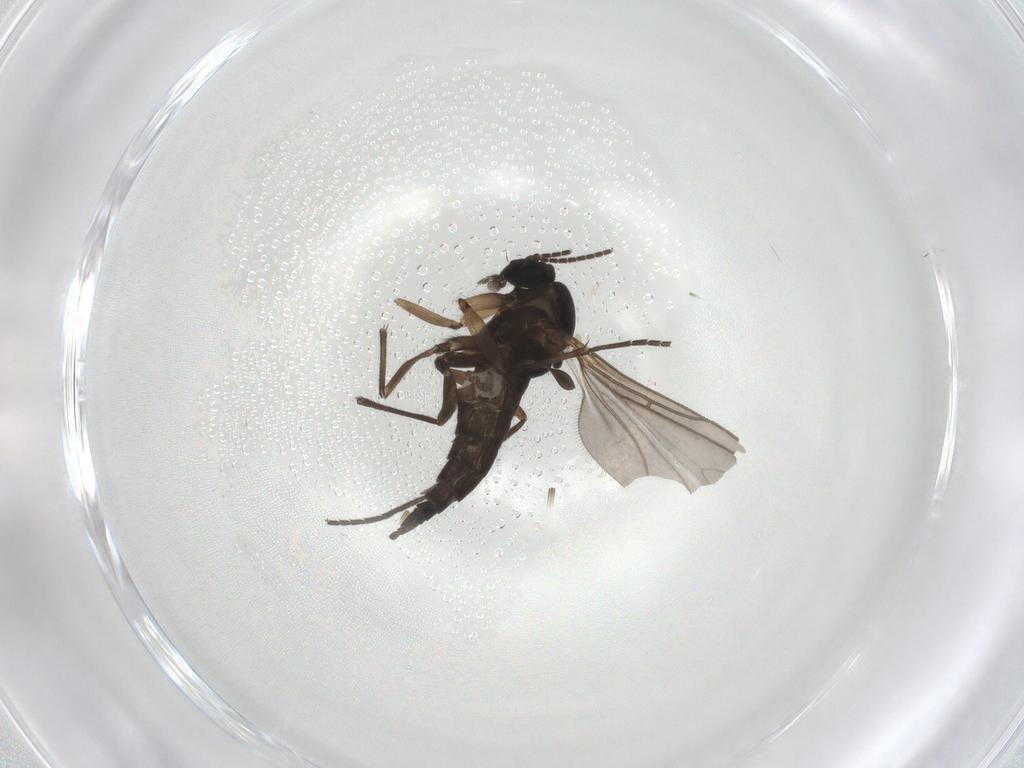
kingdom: Animalia
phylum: Arthropoda
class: Insecta
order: Diptera
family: Sciaridae
